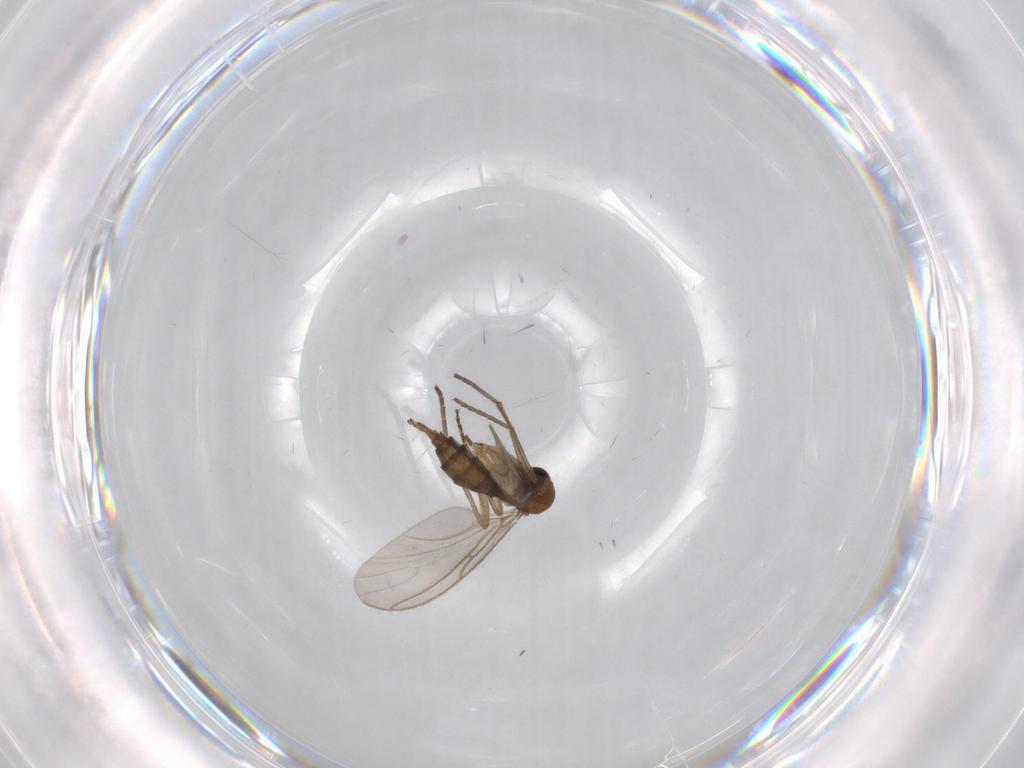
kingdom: Animalia
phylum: Arthropoda
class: Insecta
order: Diptera
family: Sciaridae
